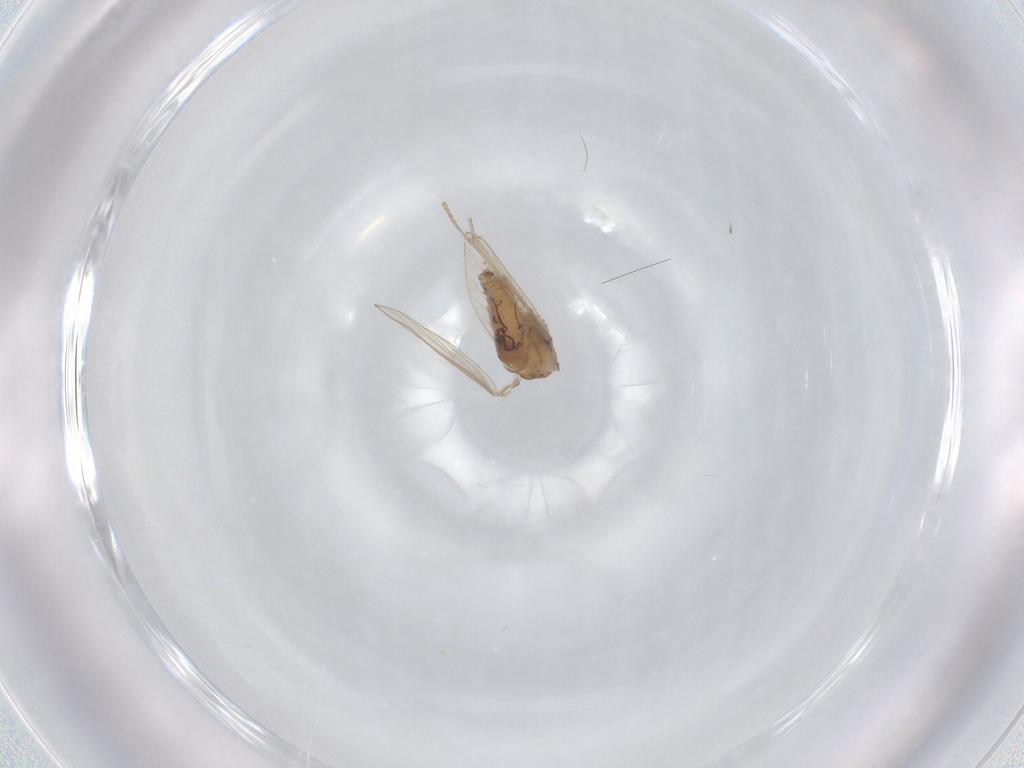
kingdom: Animalia
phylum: Arthropoda
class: Insecta
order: Diptera
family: Psychodidae
